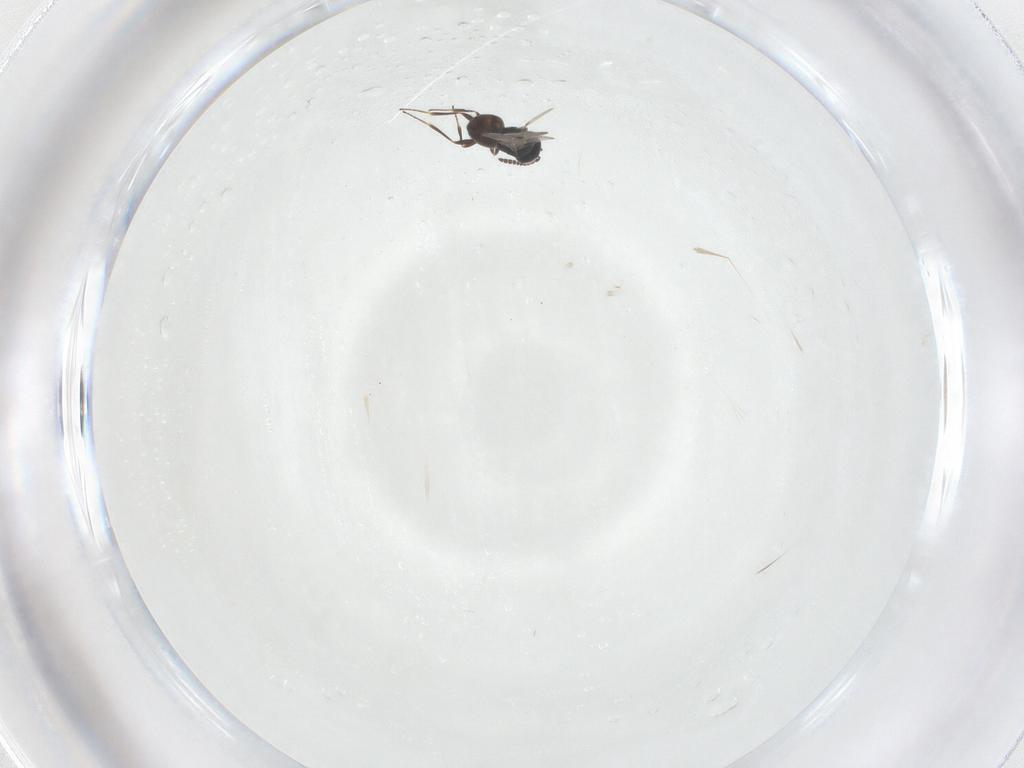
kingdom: Animalia
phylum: Arthropoda
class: Insecta
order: Hymenoptera
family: Scelionidae
